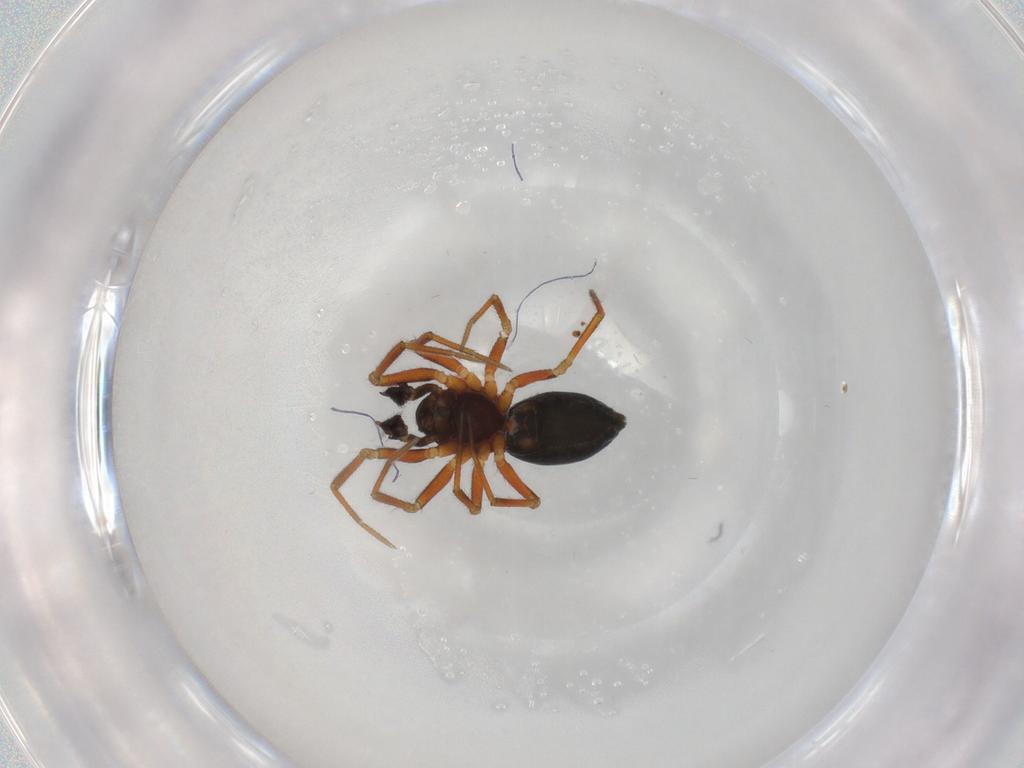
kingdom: Animalia
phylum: Arthropoda
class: Arachnida
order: Araneae
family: Linyphiidae
